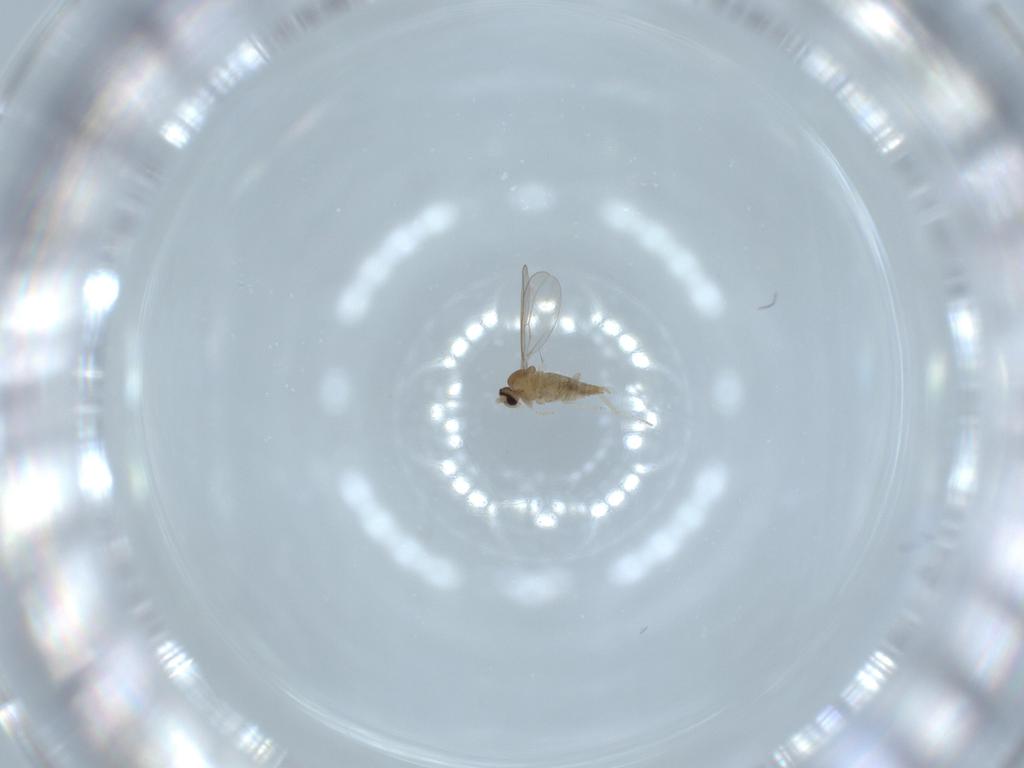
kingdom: Animalia
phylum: Arthropoda
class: Insecta
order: Diptera
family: Cecidomyiidae
